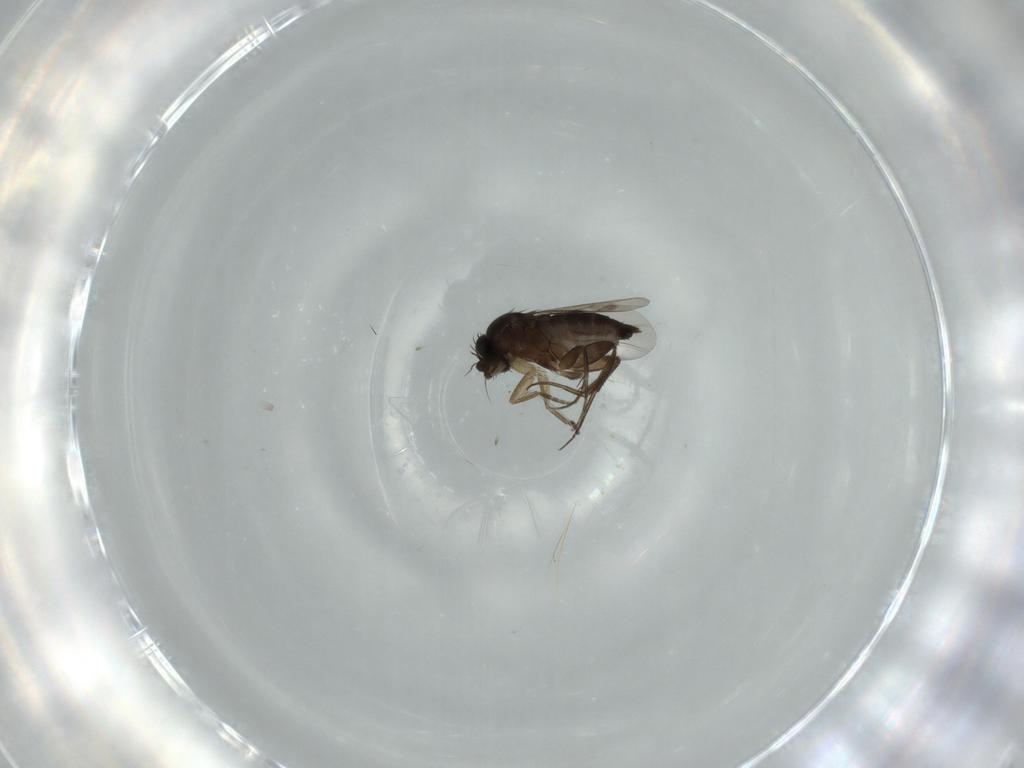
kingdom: Animalia
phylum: Arthropoda
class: Insecta
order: Diptera
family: Phoridae
